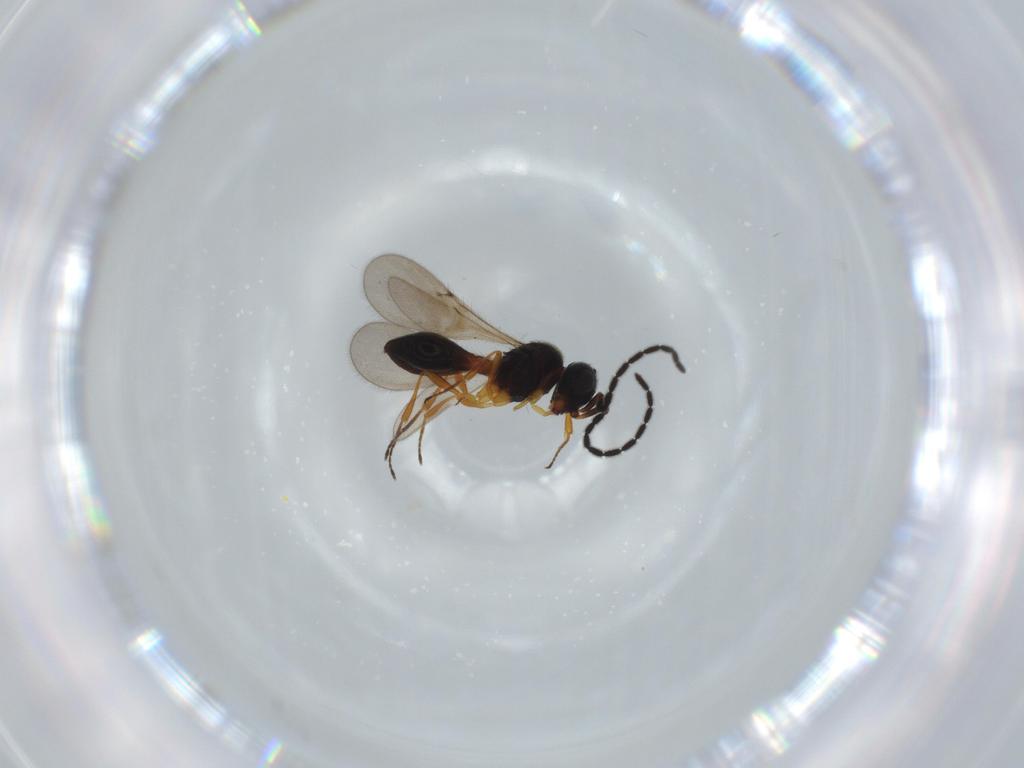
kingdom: Animalia
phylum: Arthropoda
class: Insecta
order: Hymenoptera
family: Scelionidae
